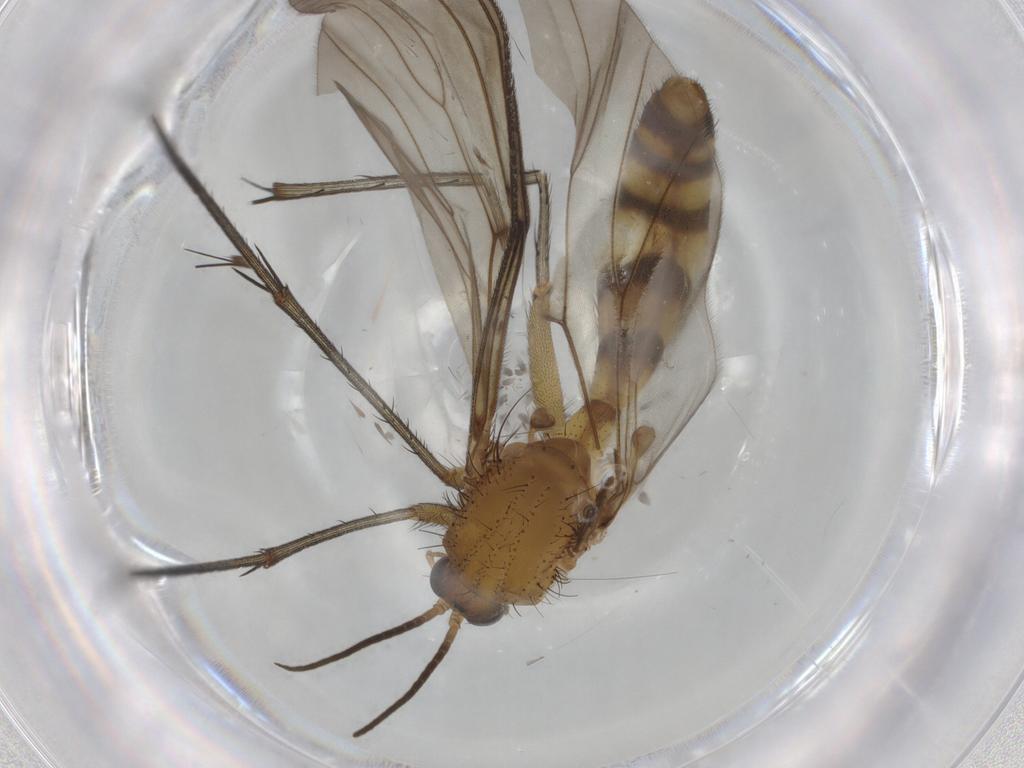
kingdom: Animalia
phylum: Arthropoda
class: Insecta
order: Diptera
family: Mycetophilidae
